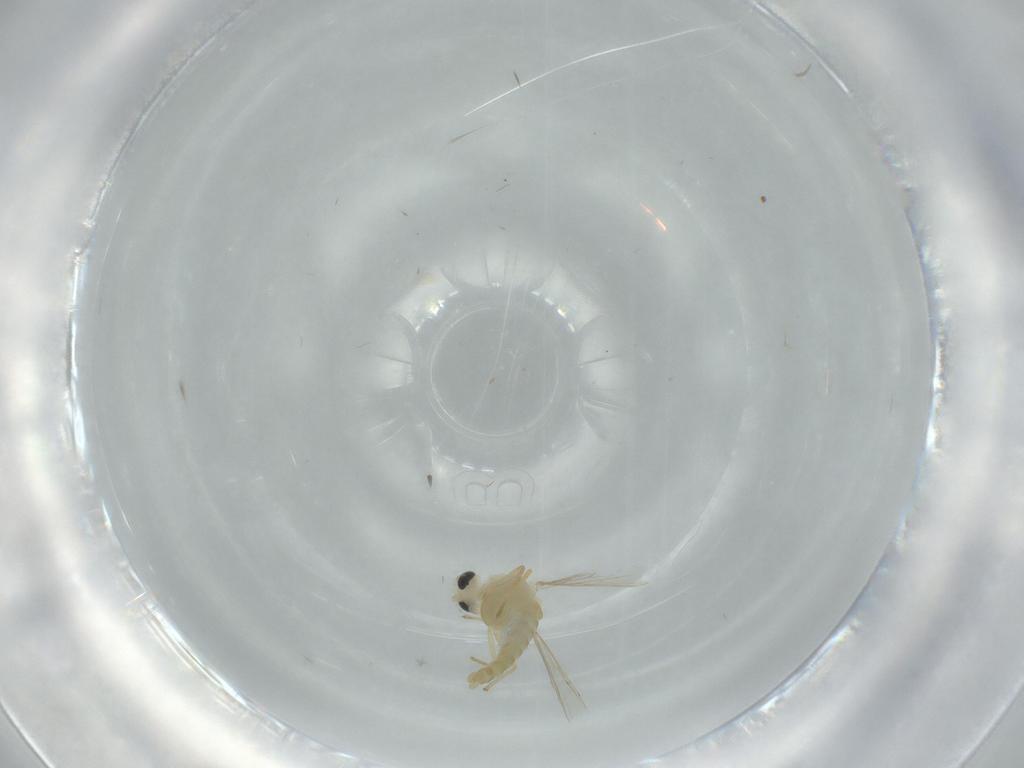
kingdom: Animalia
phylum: Arthropoda
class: Insecta
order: Diptera
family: Chironomidae
